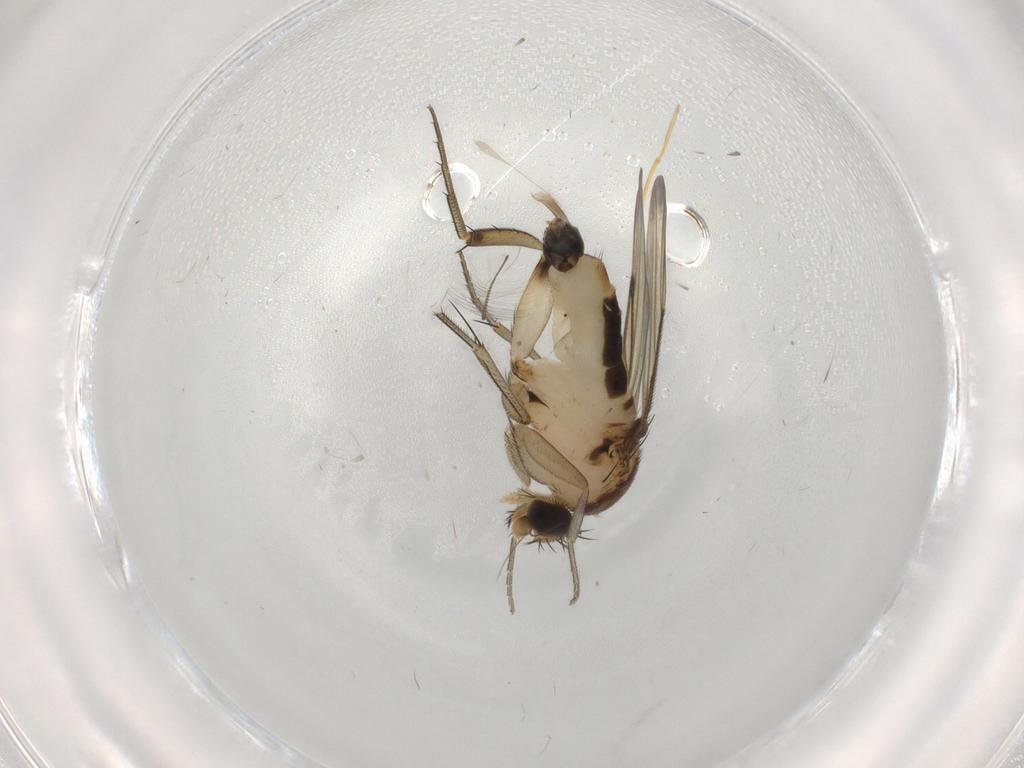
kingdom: Animalia
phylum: Arthropoda
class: Insecta
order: Diptera
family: Phoridae
